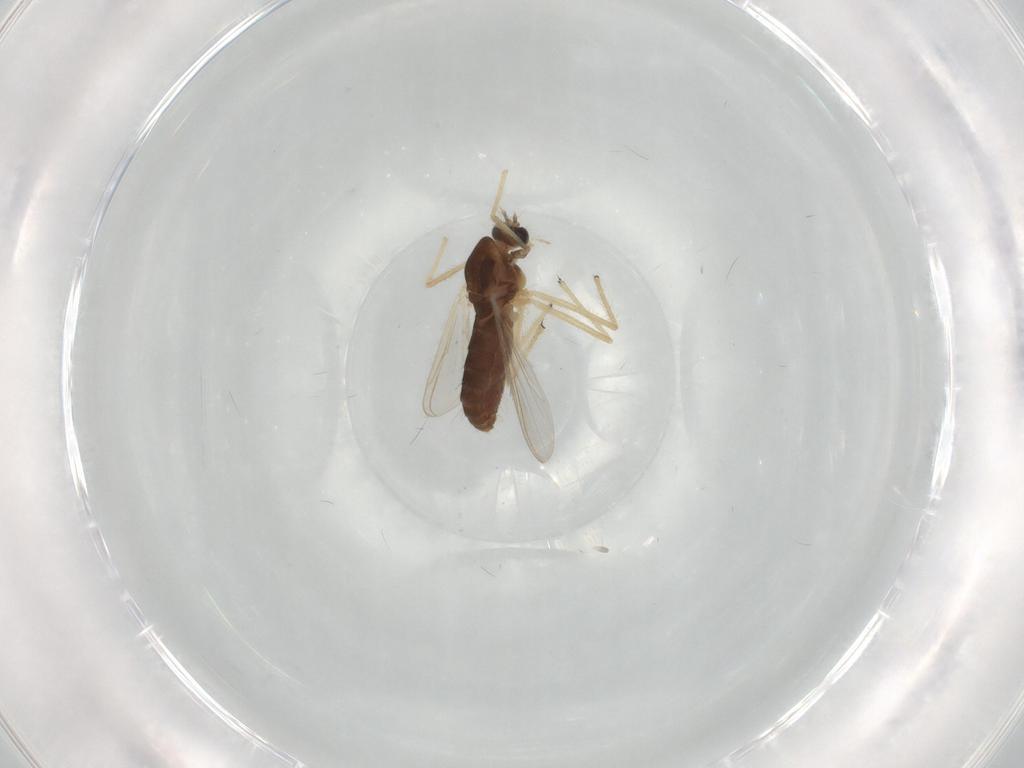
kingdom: Animalia
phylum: Arthropoda
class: Insecta
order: Diptera
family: Chironomidae
